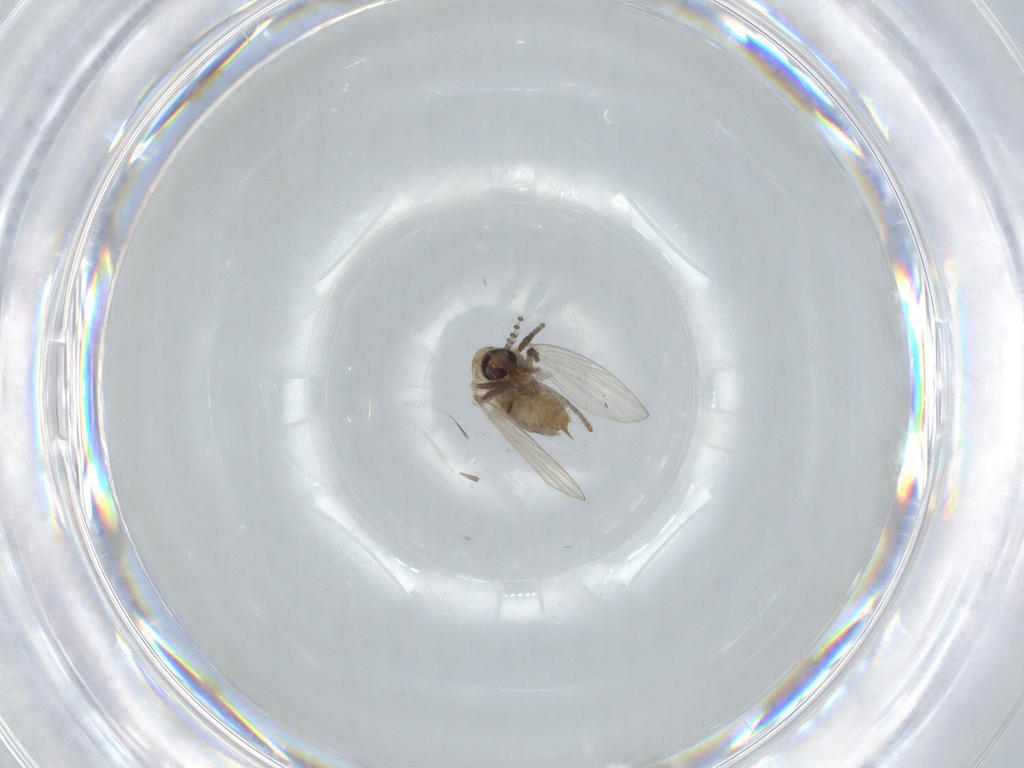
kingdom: Animalia
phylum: Arthropoda
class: Insecta
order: Diptera
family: Psychodidae
